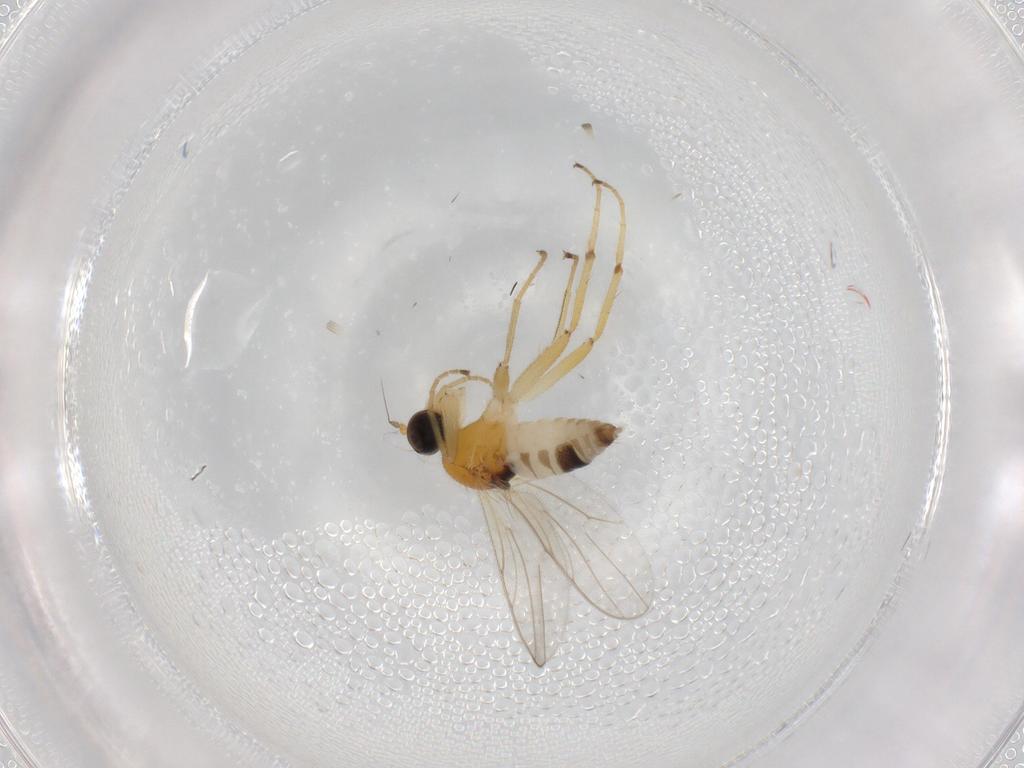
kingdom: Animalia
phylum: Arthropoda
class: Insecta
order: Diptera
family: Hybotidae
